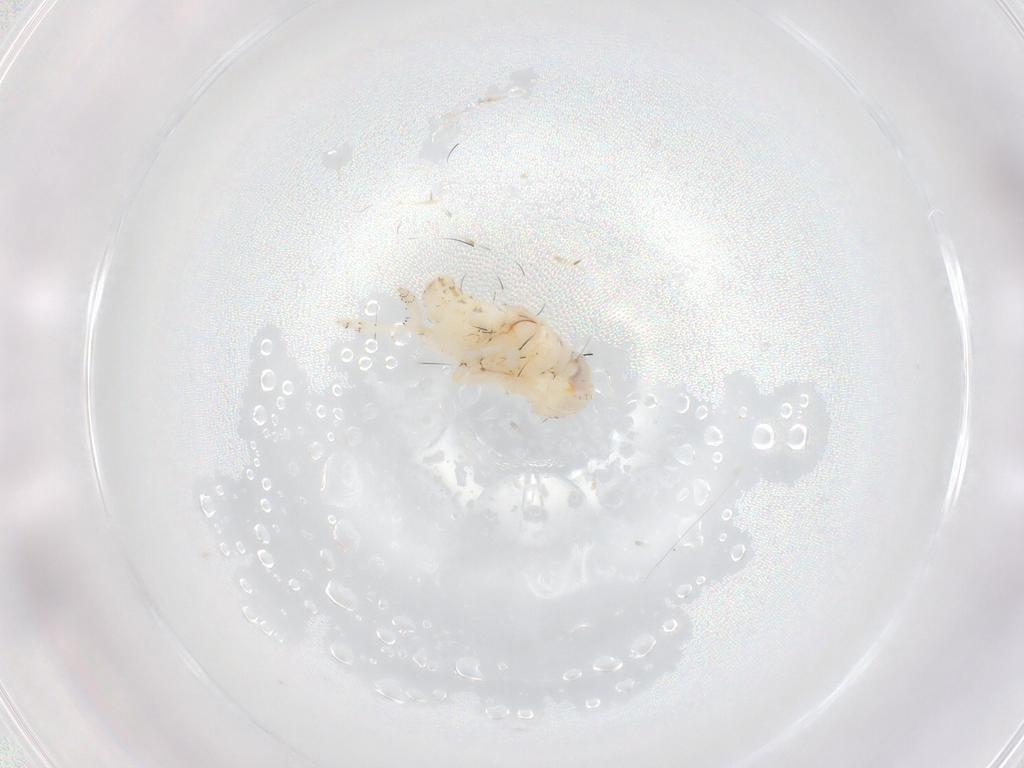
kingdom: Animalia
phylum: Arthropoda
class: Insecta
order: Hemiptera
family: Nogodinidae
